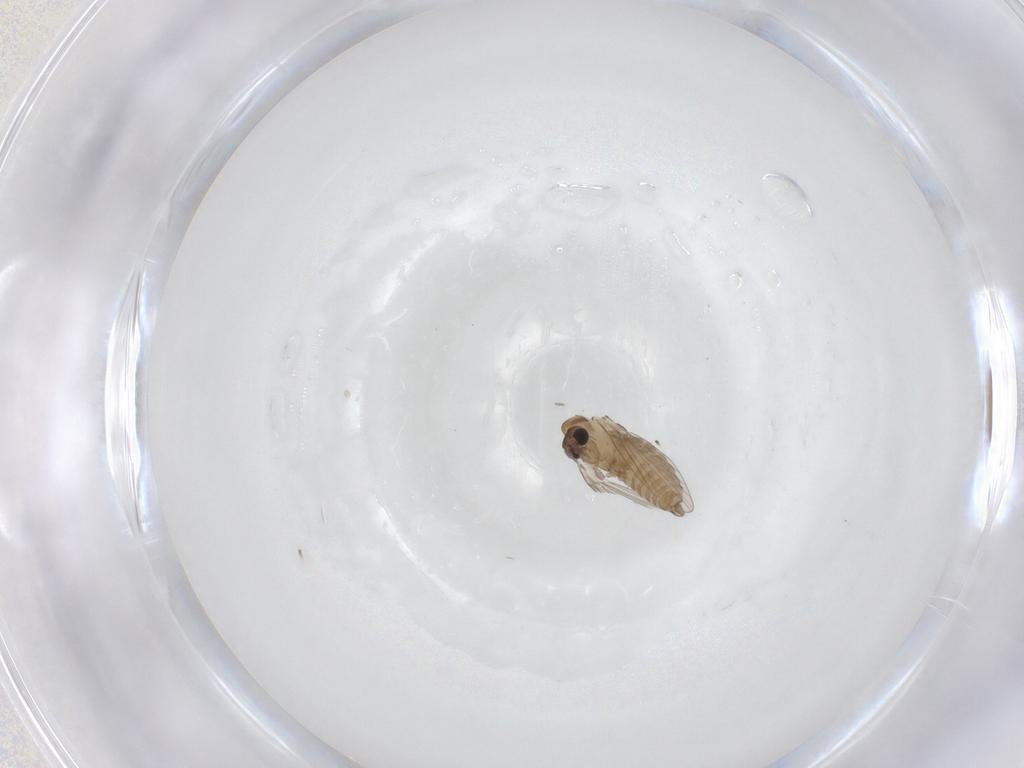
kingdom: Animalia
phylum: Arthropoda
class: Insecta
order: Diptera
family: Psychodidae
